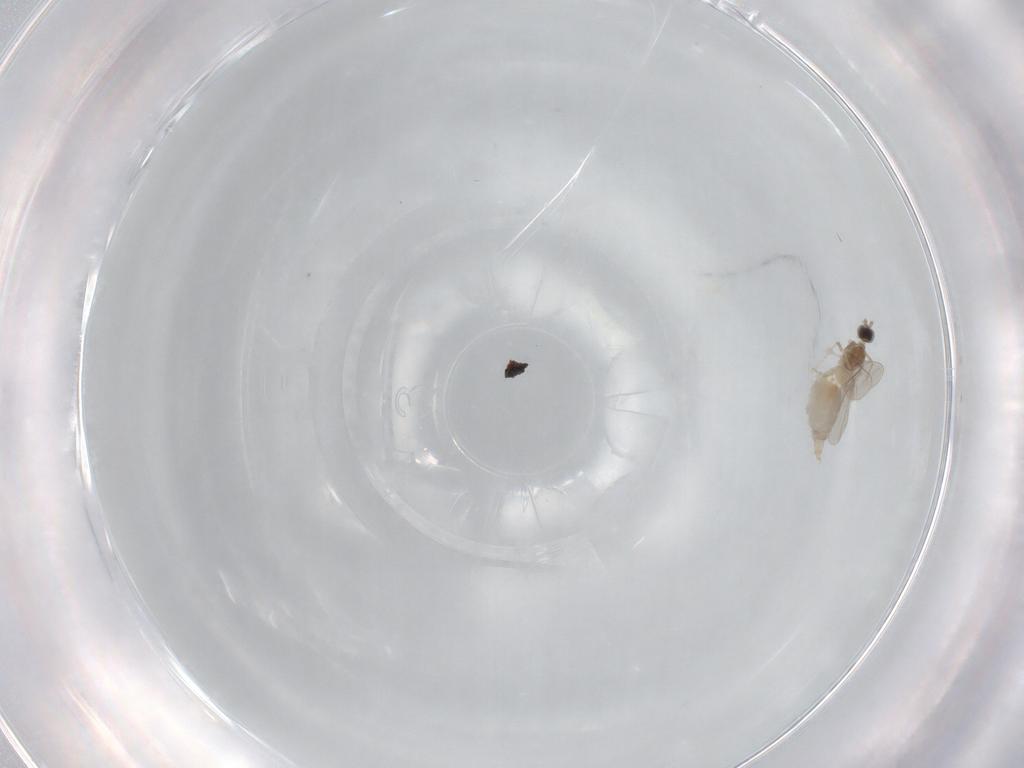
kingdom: Animalia
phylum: Arthropoda
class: Insecta
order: Diptera
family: Cecidomyiidae
